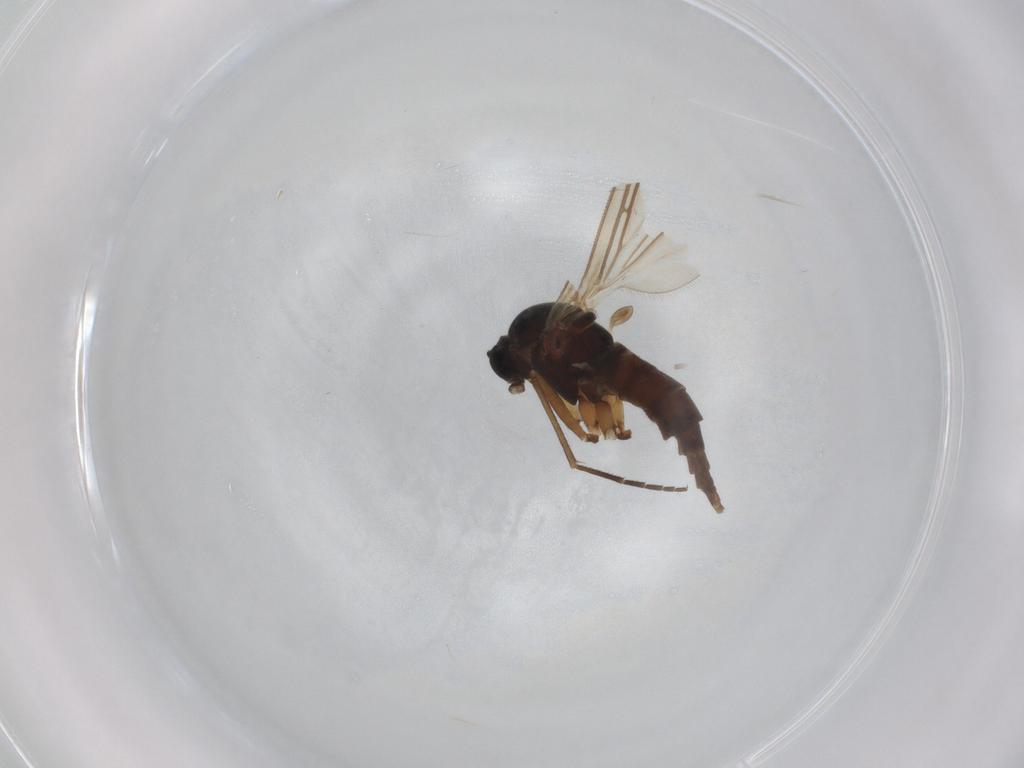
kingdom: Animalia
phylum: Arthropoda
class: Insecta
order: Diptera
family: Sciaridae
